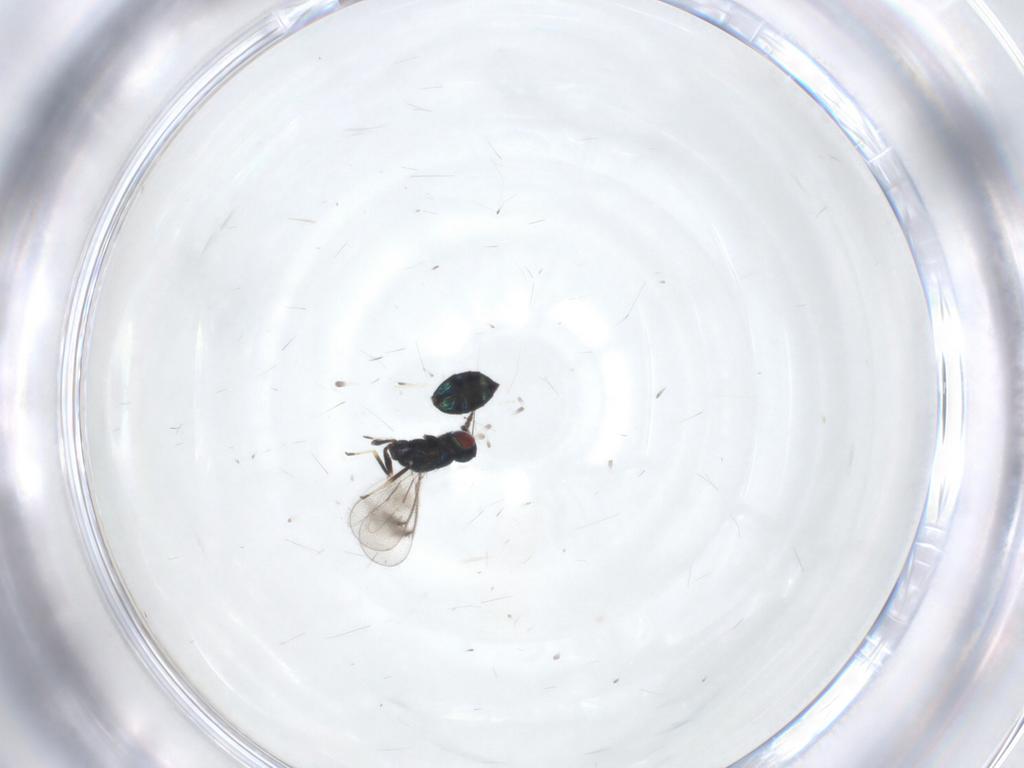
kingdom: Animalia
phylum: Arthropoda
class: Insecta
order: Hymenoptera
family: Eulophidae
